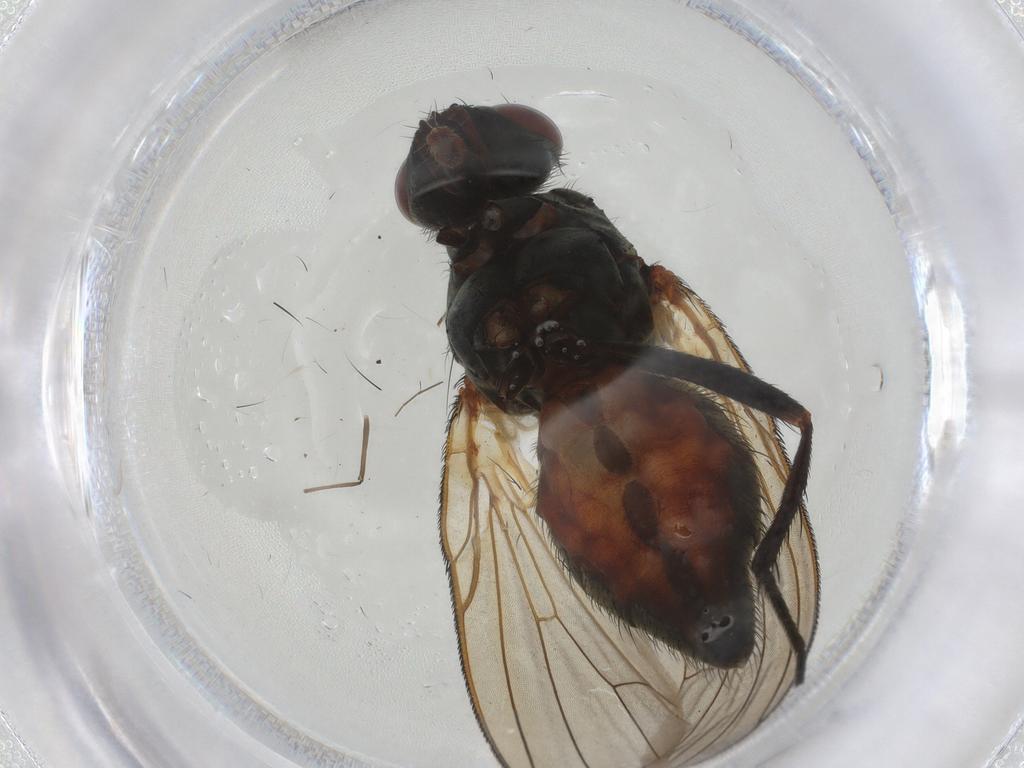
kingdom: Animalia
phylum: Arthropoda
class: Insecta
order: Diptera
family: Anthomyiidae
